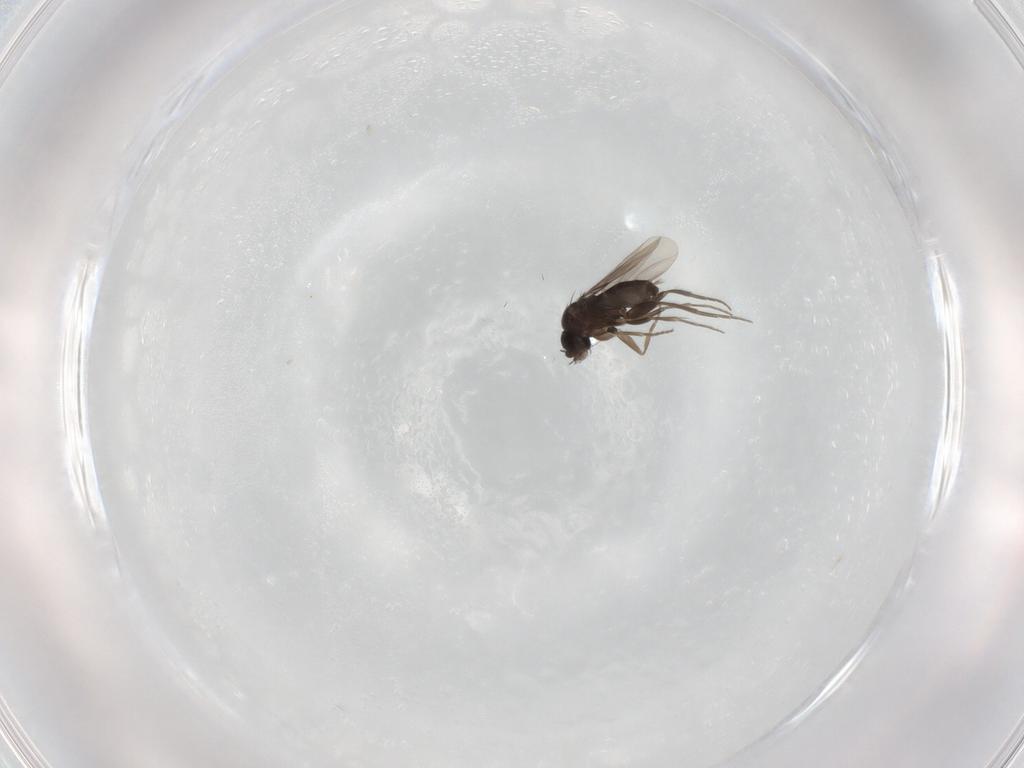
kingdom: Animalia
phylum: Arthropoda
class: Insecta
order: Diptera
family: Phoridae
